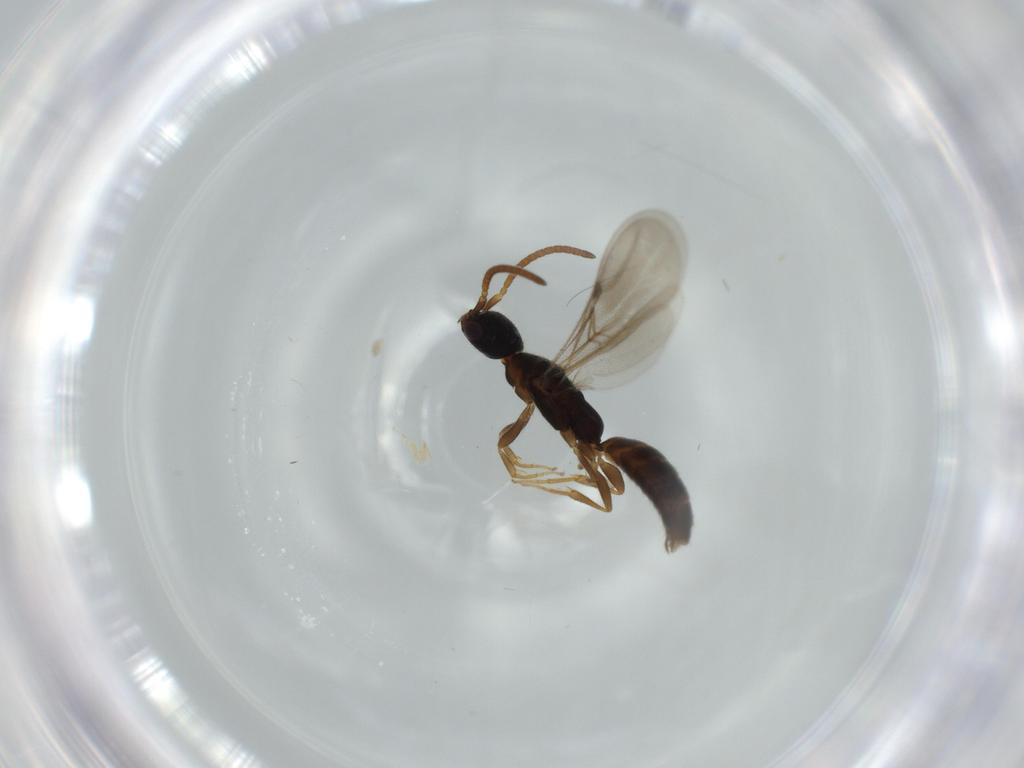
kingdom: Animalia
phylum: Arthropoda
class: Insecta
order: Hymenoptera
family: Bethylidae
